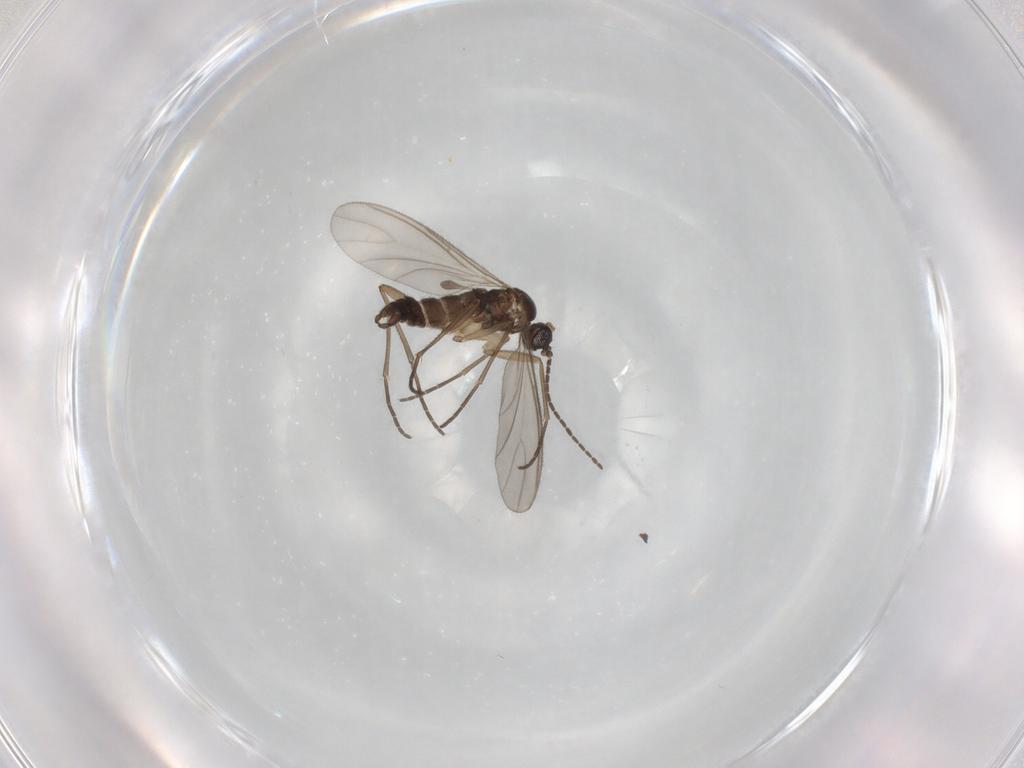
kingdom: Animalia
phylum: Arthropoda
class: Insecta
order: Diptera
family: Sciaridae
